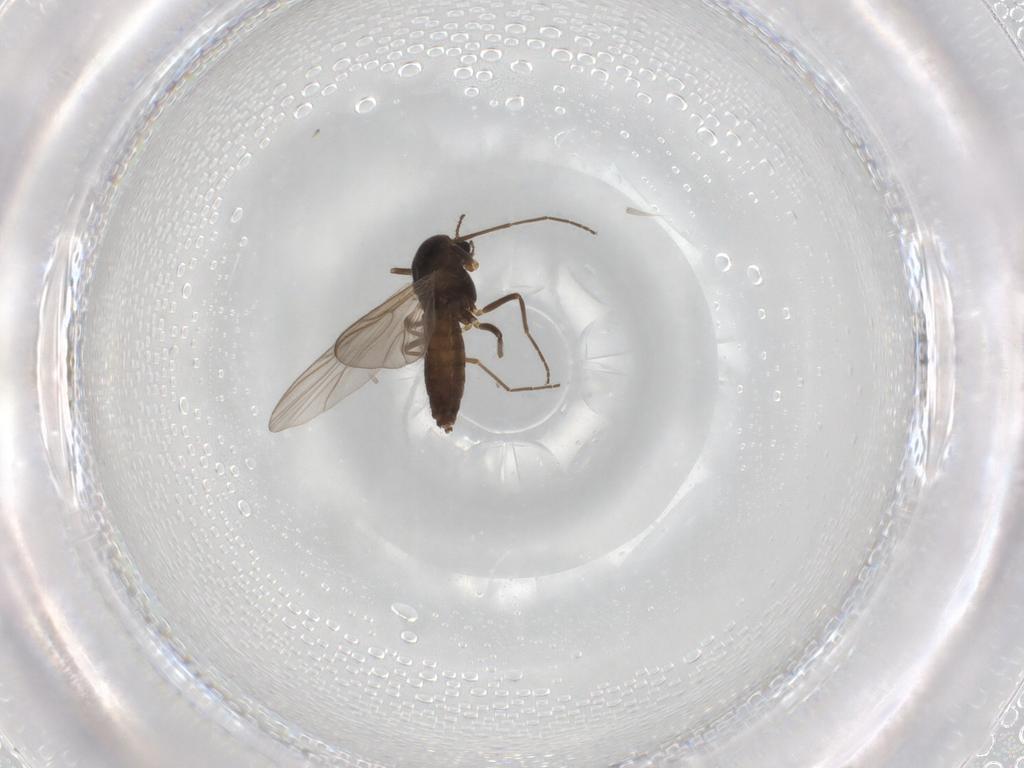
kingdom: Animalia
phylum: Arthropoda
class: Insecta
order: Diptera
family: Chironomidae
